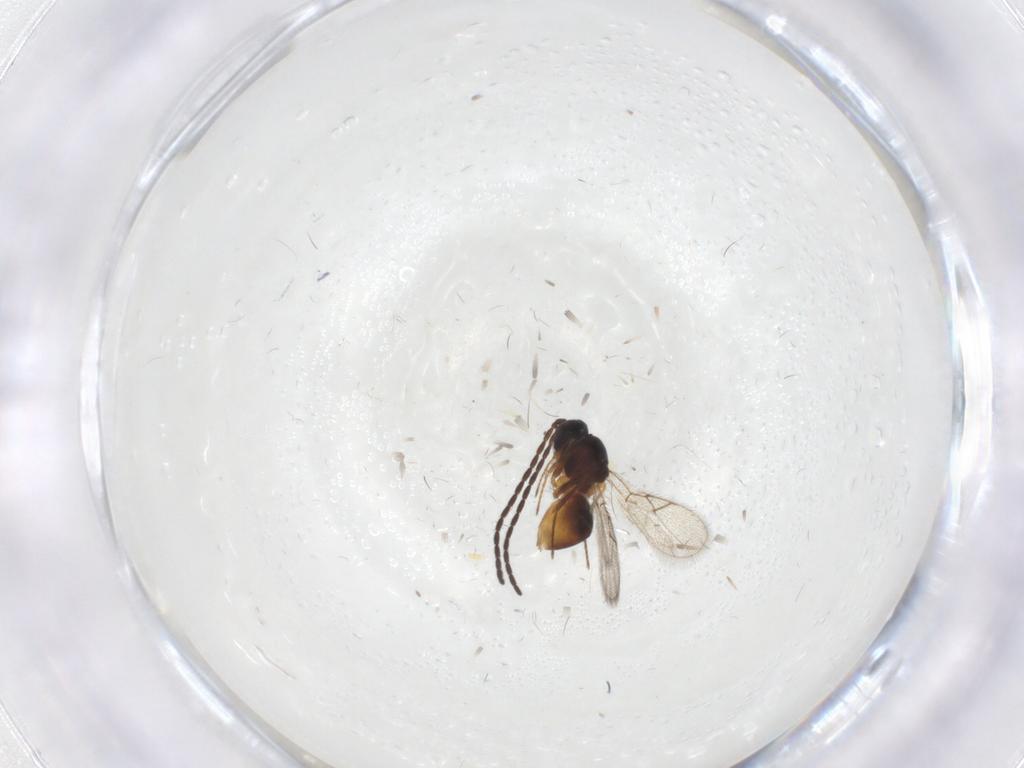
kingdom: Animalia
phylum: Arthropoda
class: Insecta
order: Hymenoptera
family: Figitidae
